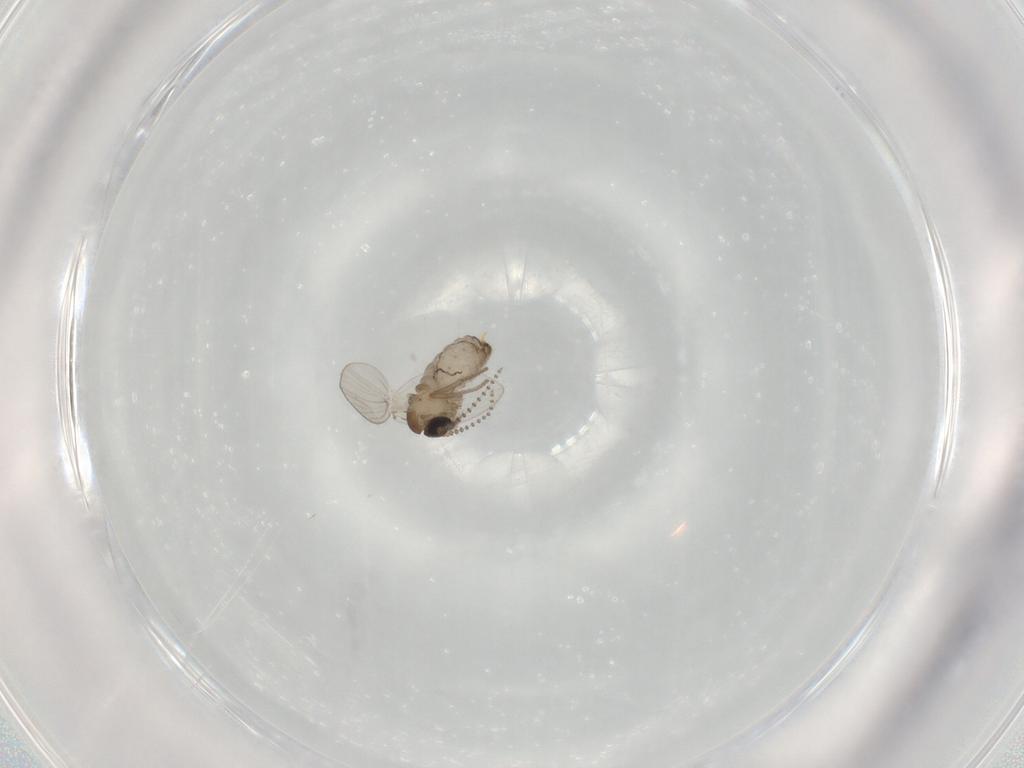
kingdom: Animalia
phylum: Arthropoda
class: Insecta
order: Diptera
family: Psychodidae
